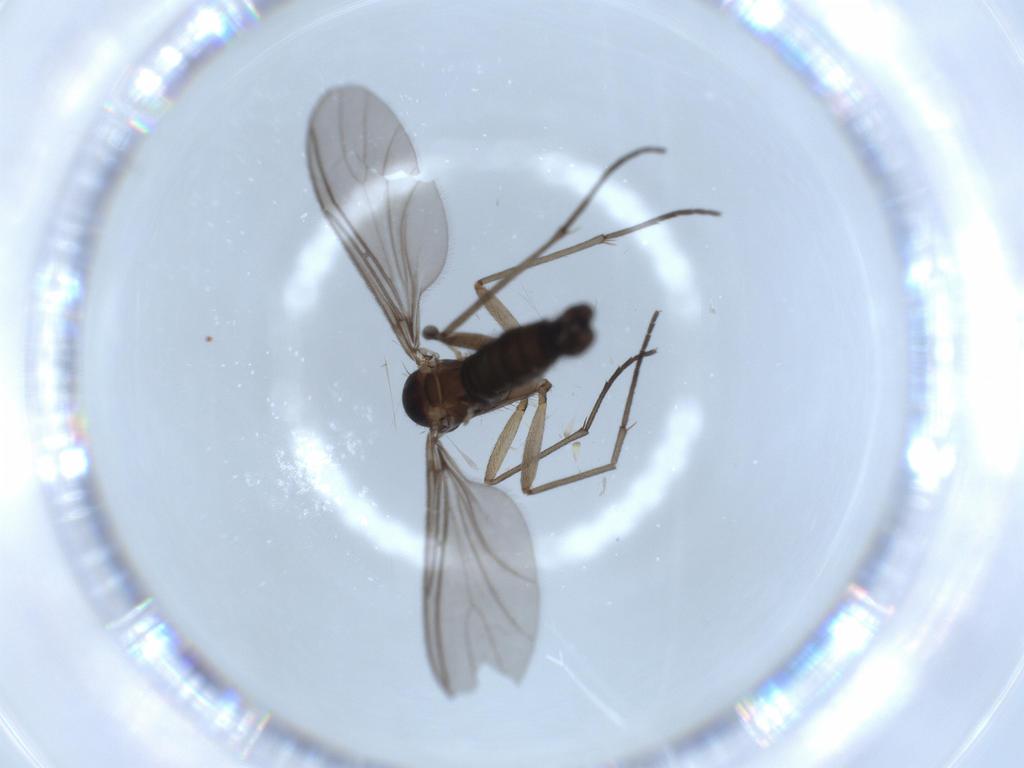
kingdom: Animalia
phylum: Arthropoda
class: Insecta
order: Diptera
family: Sciaridae
